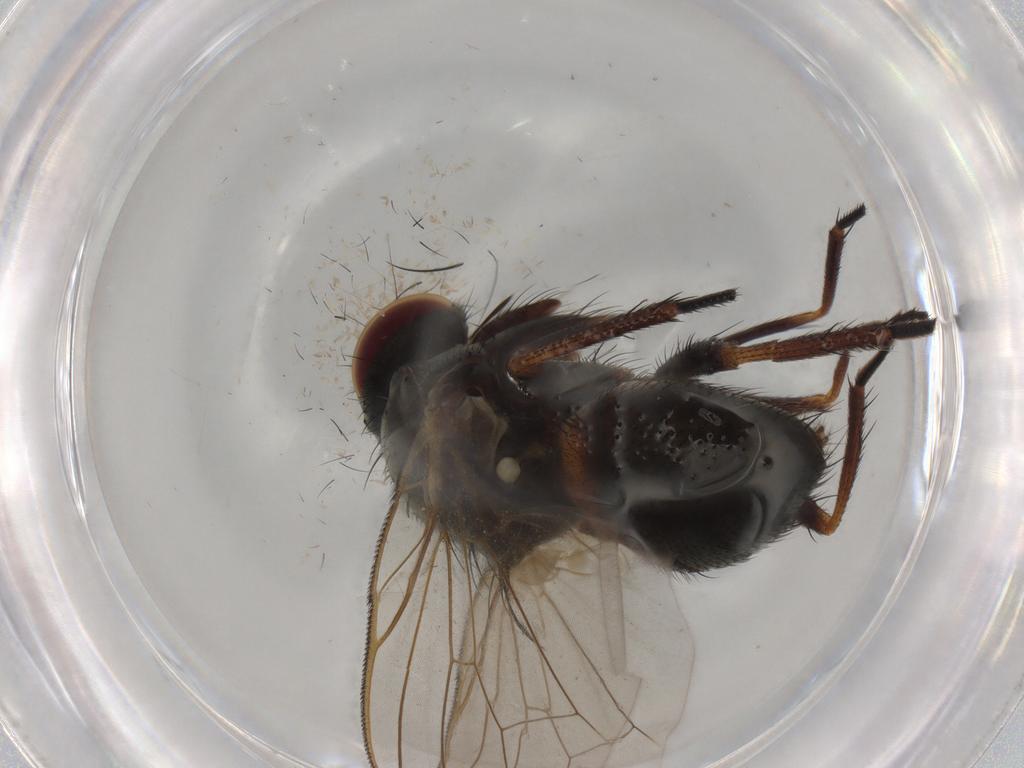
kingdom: Animalia
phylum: Arthropoda
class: Insecta
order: Diptera
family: Fannia
